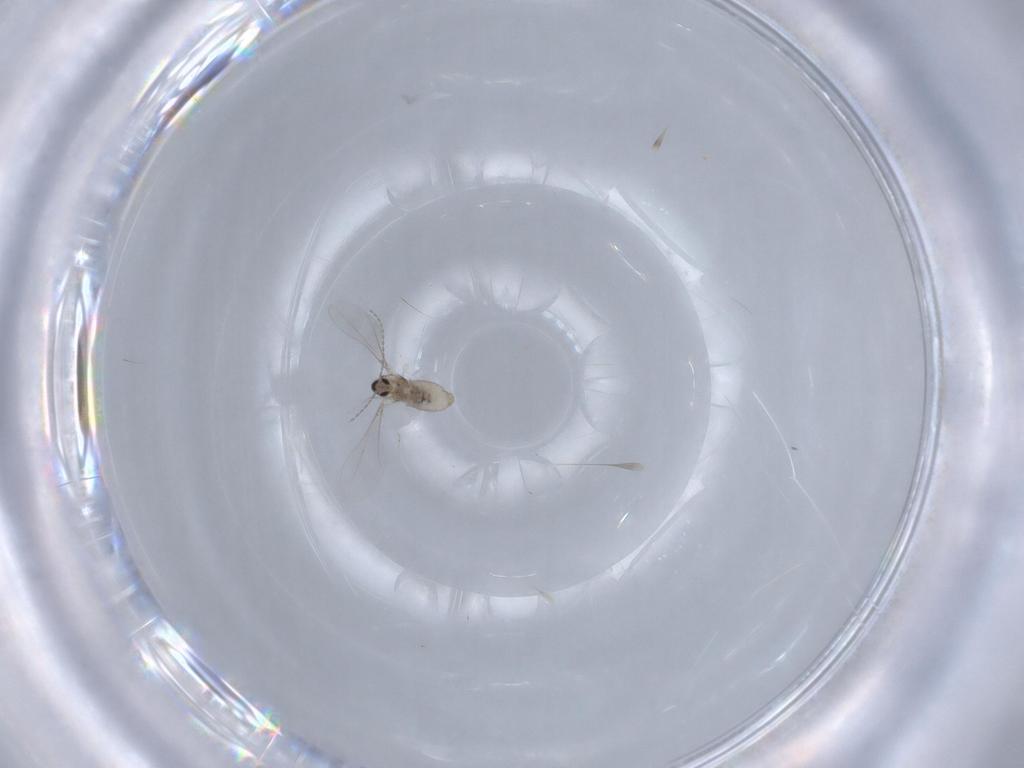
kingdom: Animalia
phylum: Arthropoda
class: Insecta
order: Diptera
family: Cecidomyiidae
